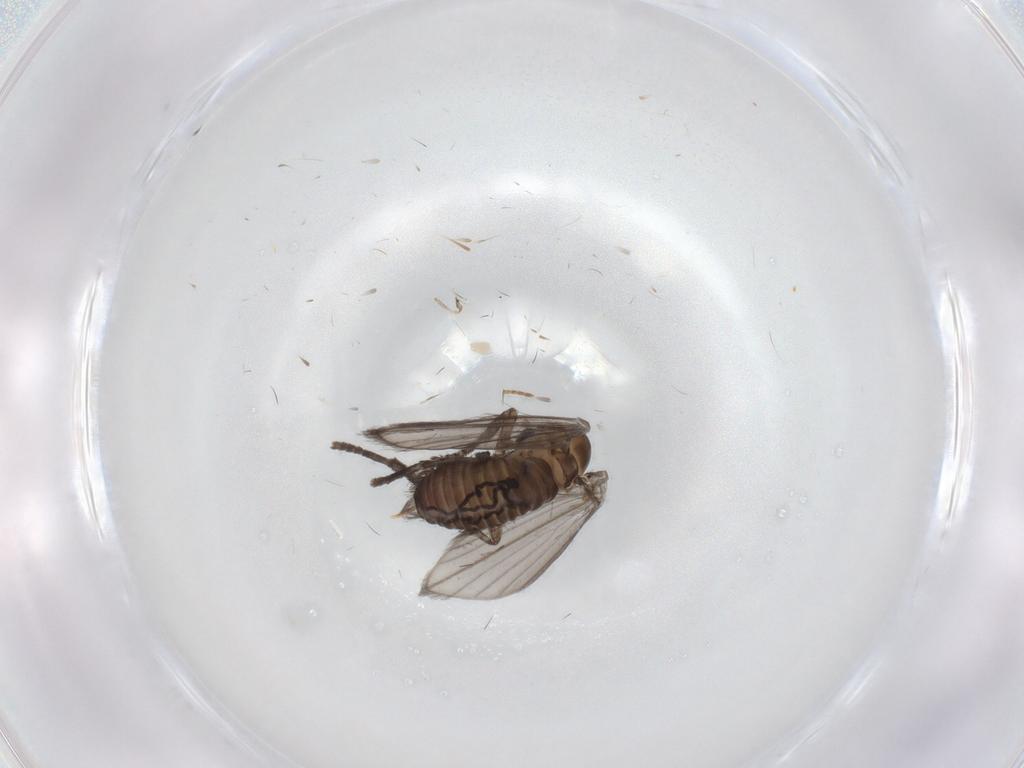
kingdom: Animalia
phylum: Arthropoda
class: Insecta
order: Diptera
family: Psychodidae
